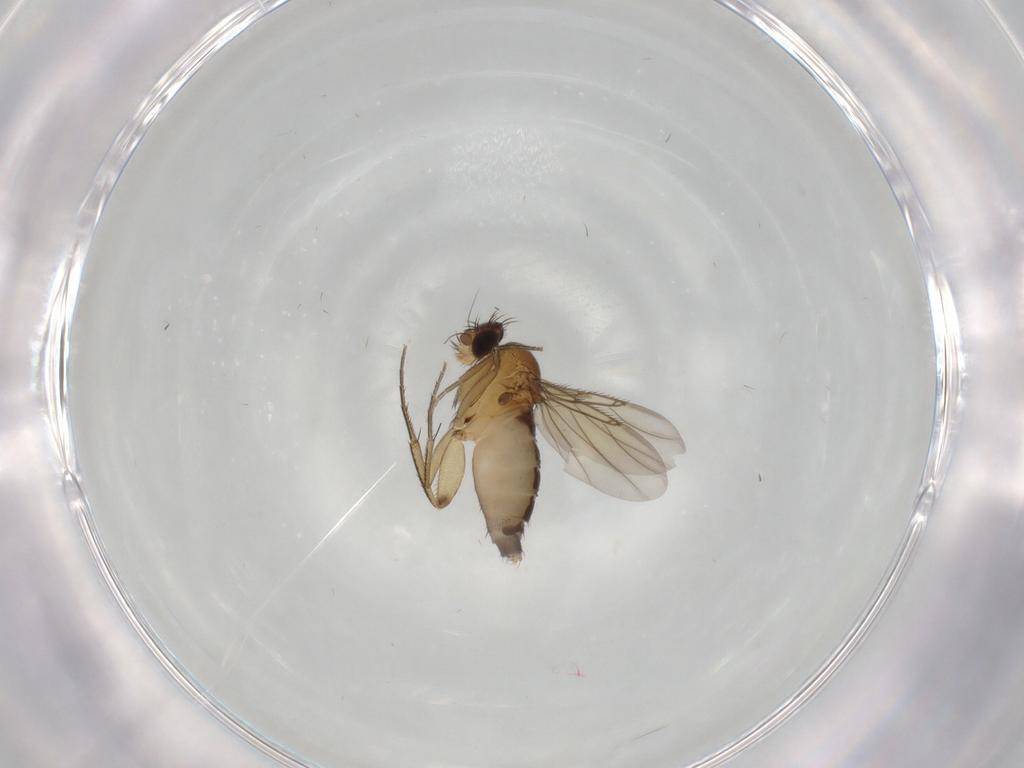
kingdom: Animalia
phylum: Arthropoda
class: Insecta
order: Diptera
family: Phoridae
